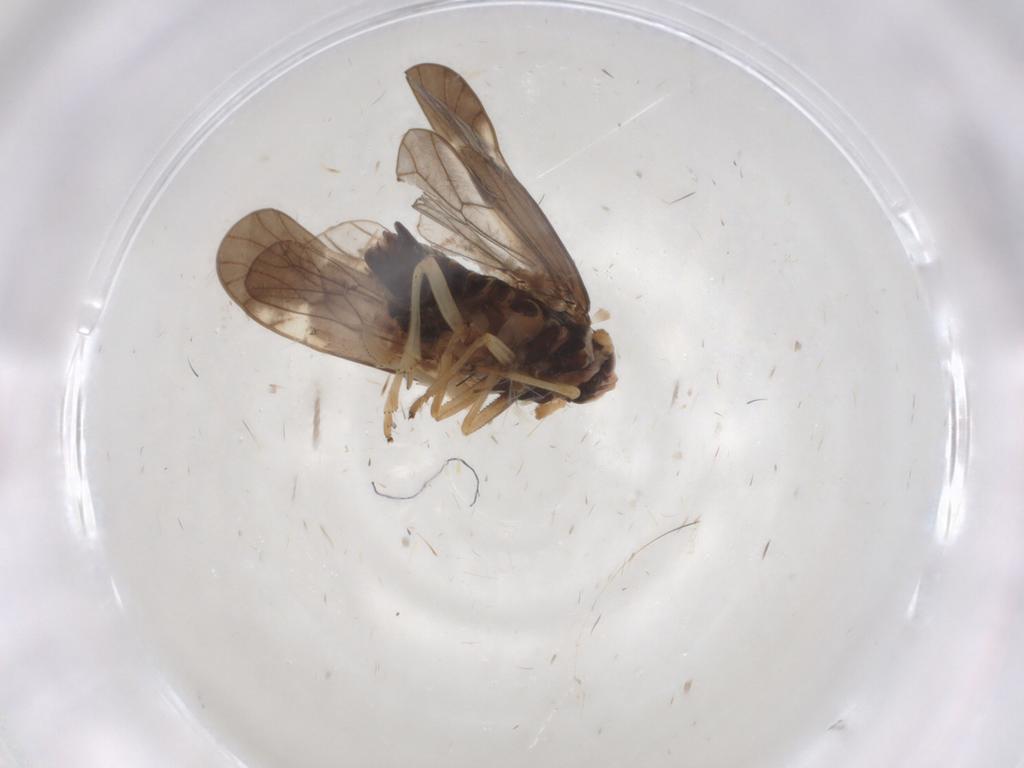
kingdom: Animalia
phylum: Arthropoda
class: Insecta
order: Hemiptera
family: Delphacidae
